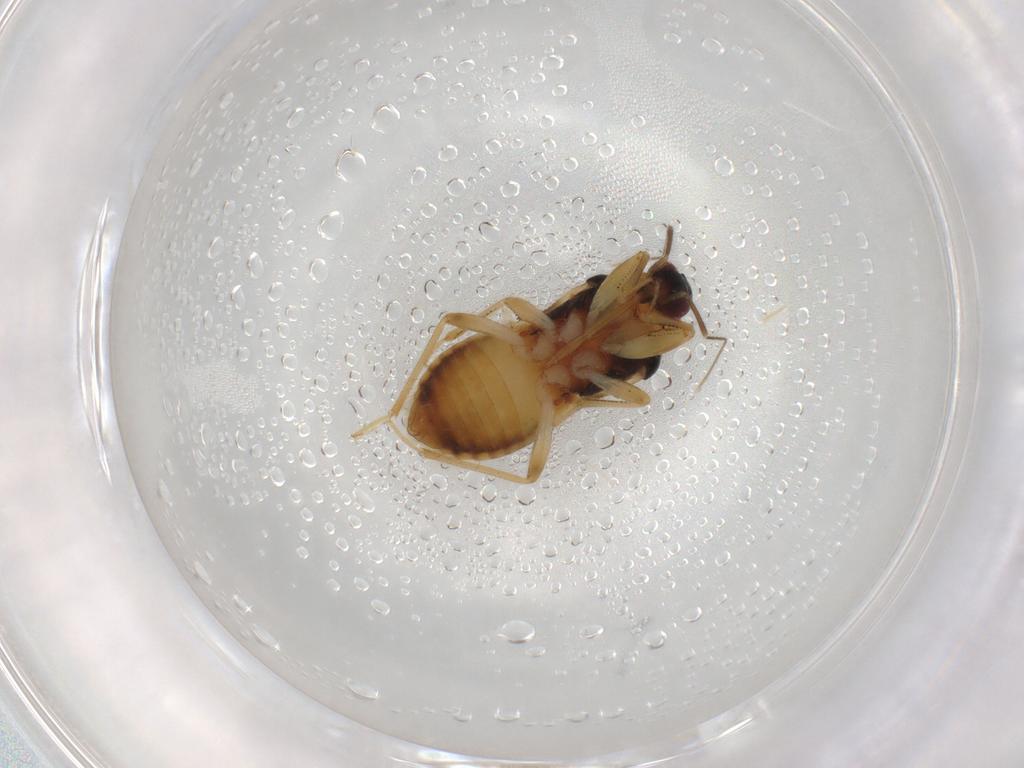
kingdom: Animalia
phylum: Arthropoda
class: Insecta
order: Hemiptera
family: Nabidae
